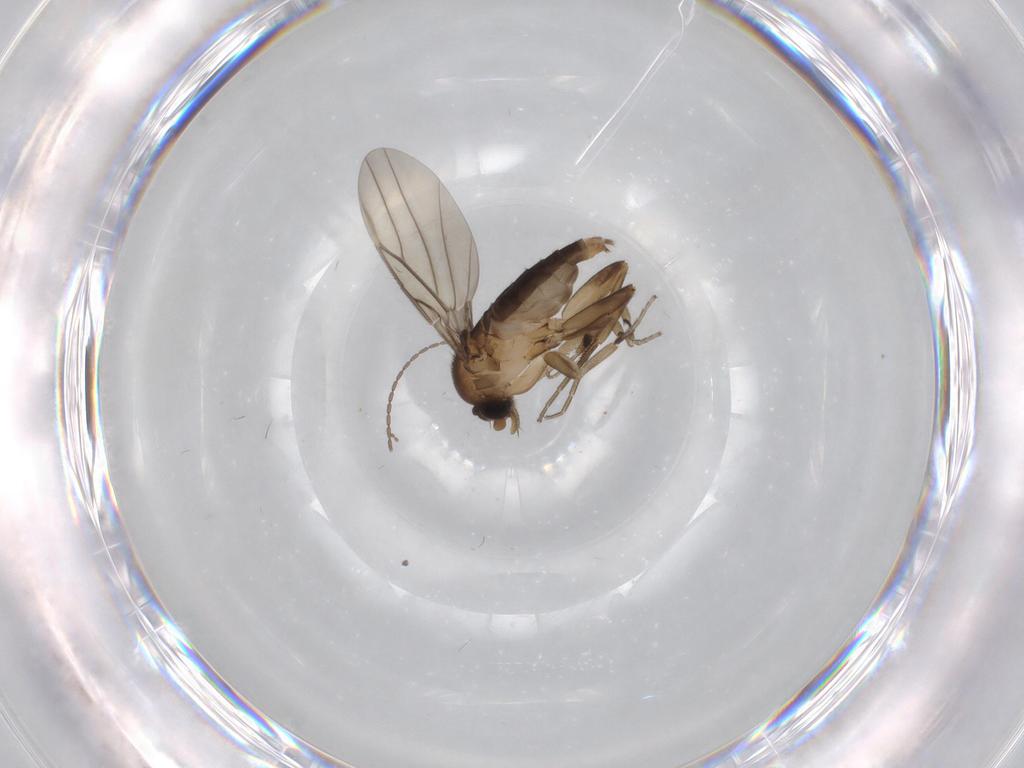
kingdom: Animalia
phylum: Arthropoda
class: Insecta
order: Diptera
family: Phoridae
